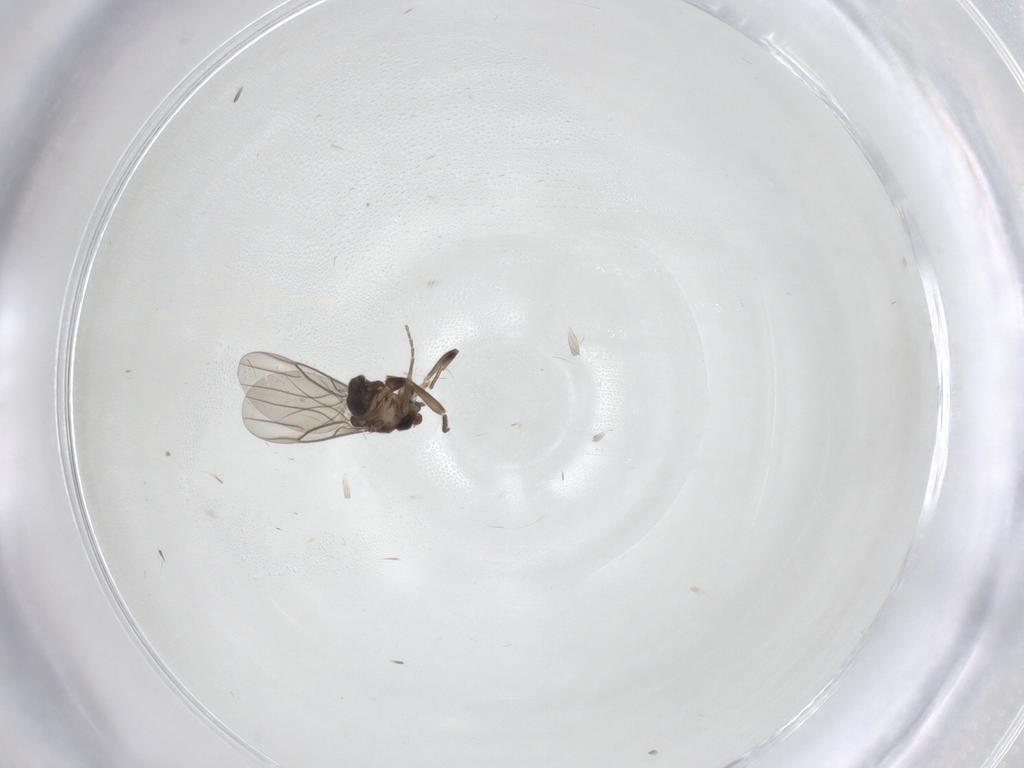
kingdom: Animalia
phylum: Arthropoda
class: Insecta
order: Diptera
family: Phoridae
